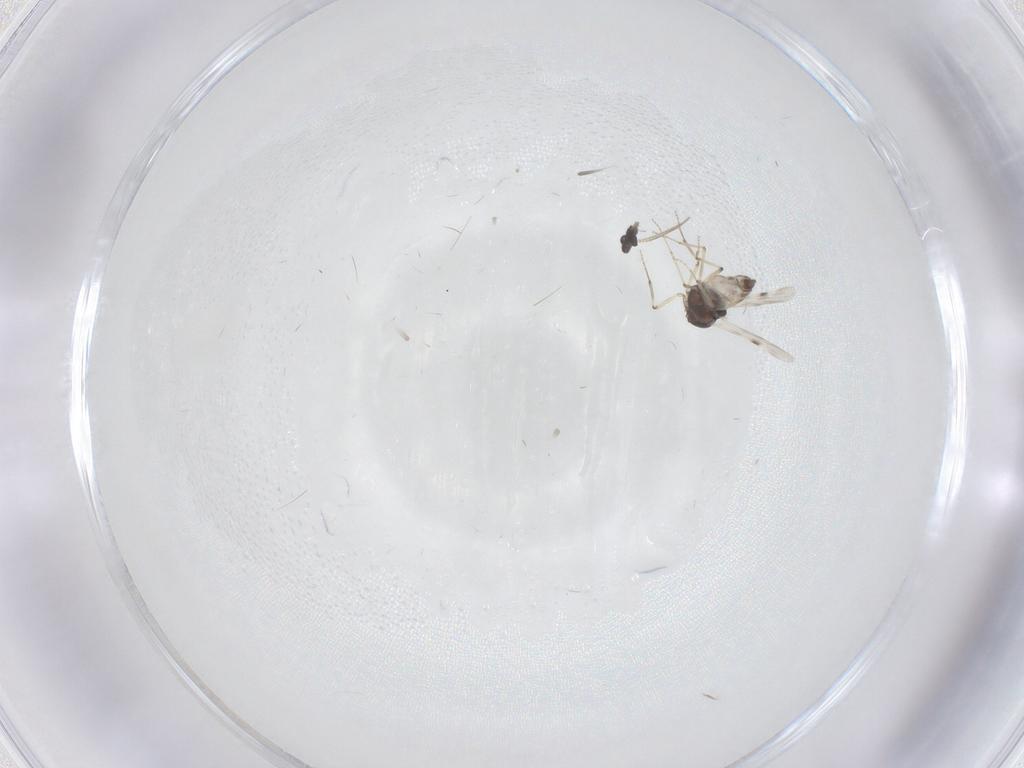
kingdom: Animalia
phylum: Arthropoda
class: Insecta
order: Diptera
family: Dolichopodidae
